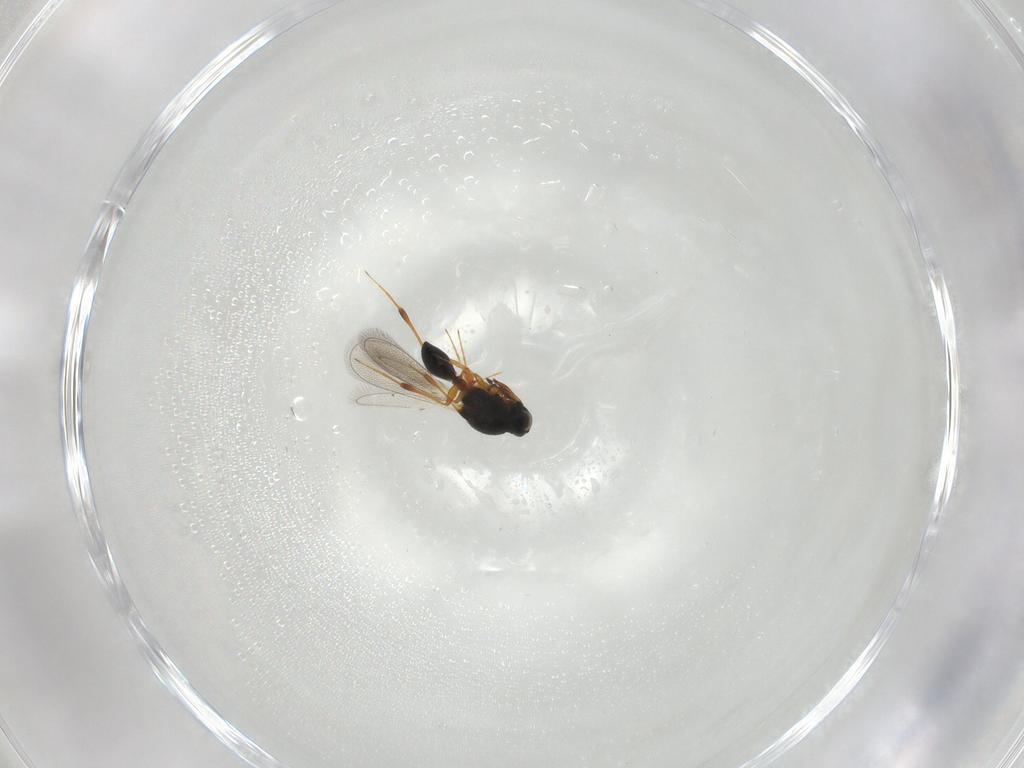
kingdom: Animalia
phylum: Arthropoda
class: Insecta
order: Hymenoptera
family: Platygastridae
